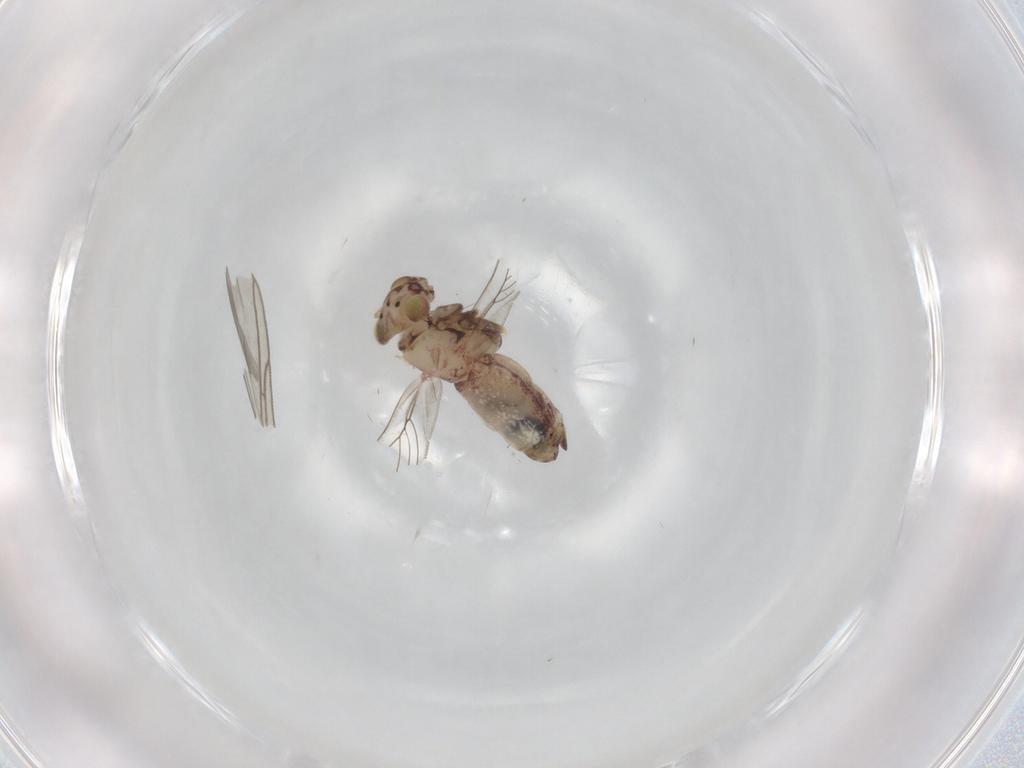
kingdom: Animalia
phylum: Arthropoda
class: Insecta
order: Psocodea
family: Lepidopsocidae
